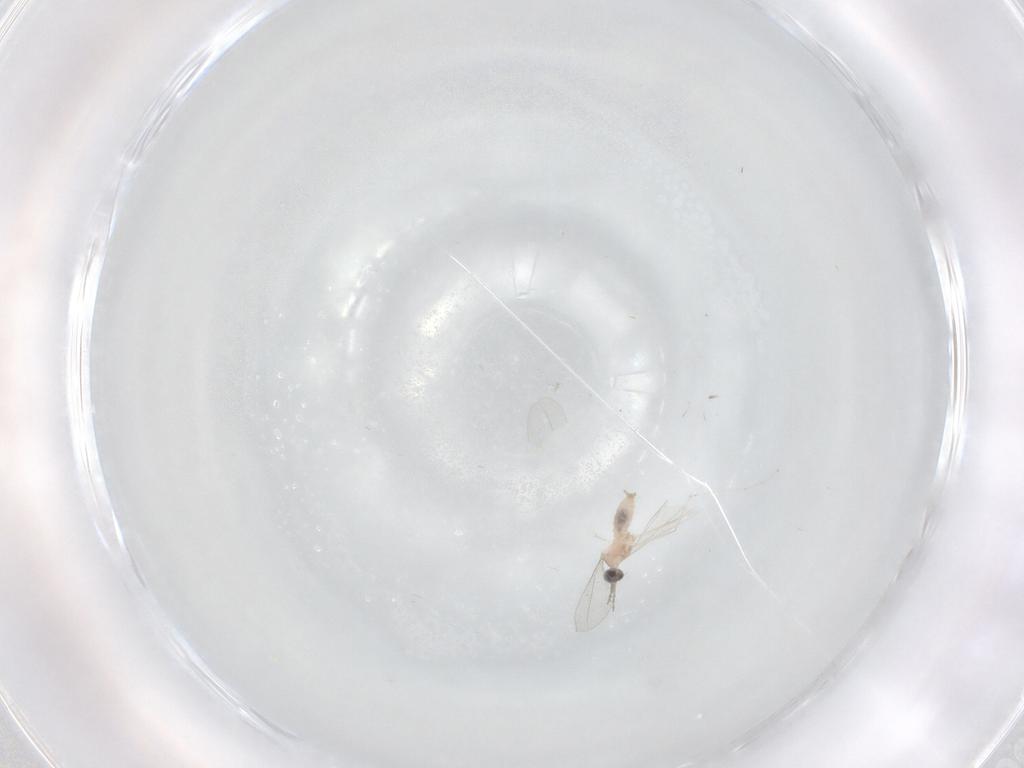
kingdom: Animalia
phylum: Arthropoda
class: Insecta
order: Diptera
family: Cecidomyiidae
